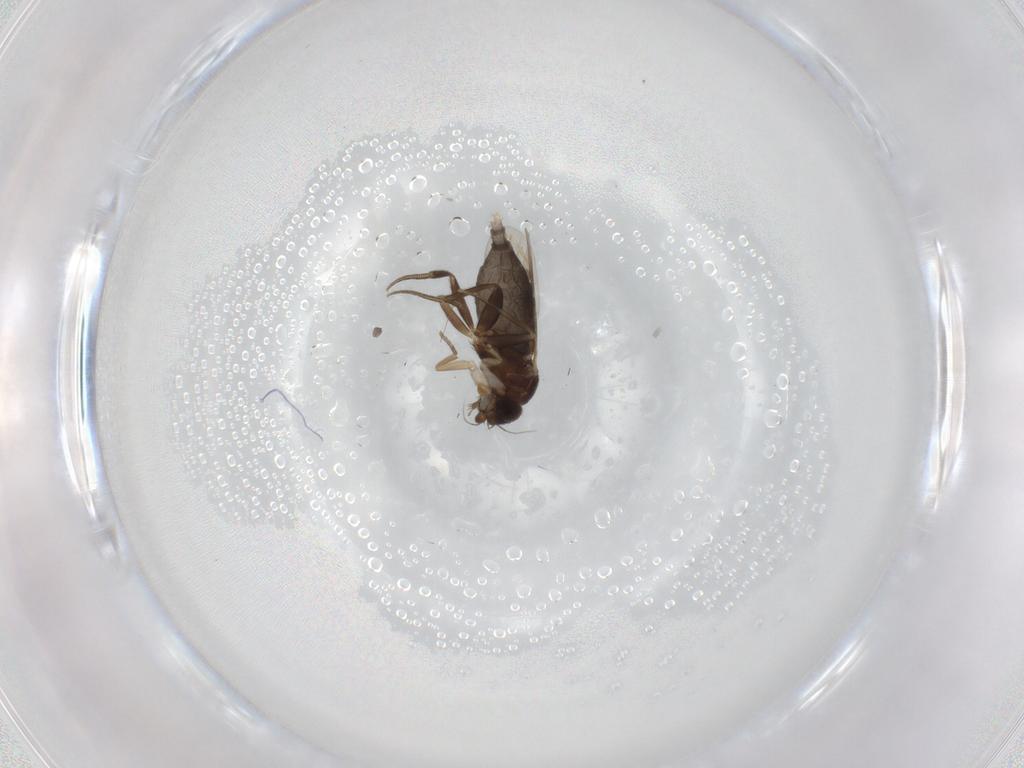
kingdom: Animalia
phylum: Arthropoda
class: Insecta
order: Diptera
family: Phoridae
